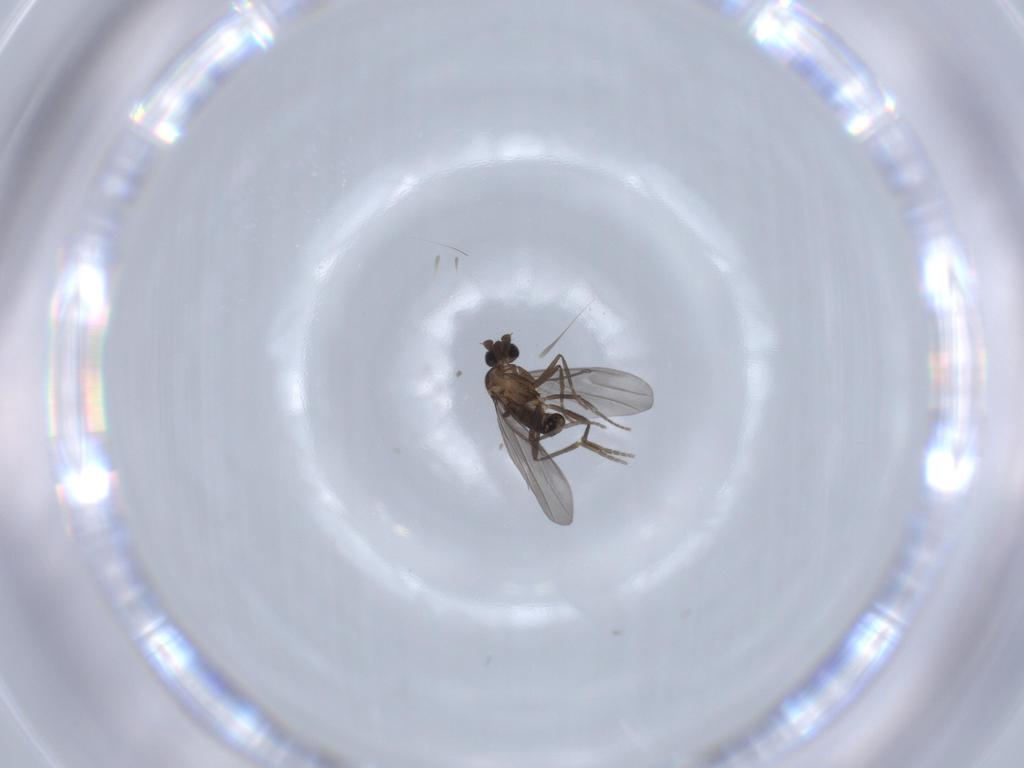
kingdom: Animalia
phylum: Arthropoda
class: Insecta
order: Diptera
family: Phoridae
